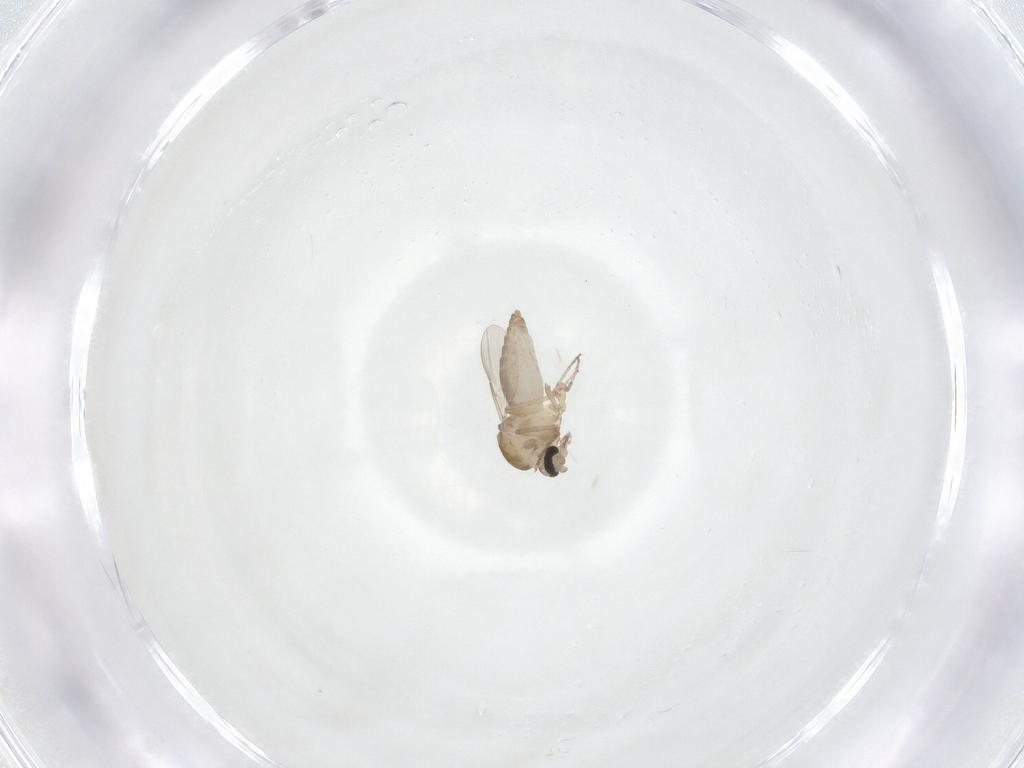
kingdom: Animalia
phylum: Arthropoda
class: Insecta
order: Diptera
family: Ceratopogonidae
